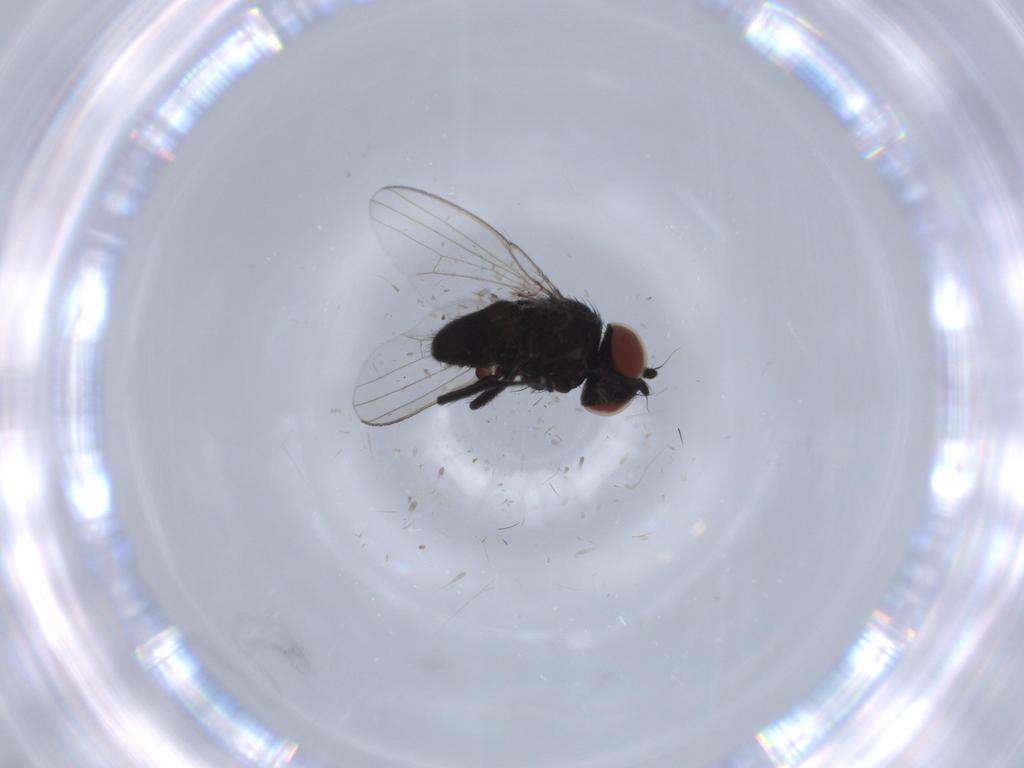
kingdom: Animalia
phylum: Arthropoda
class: Insecta
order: Diptera
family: Milichiidae
